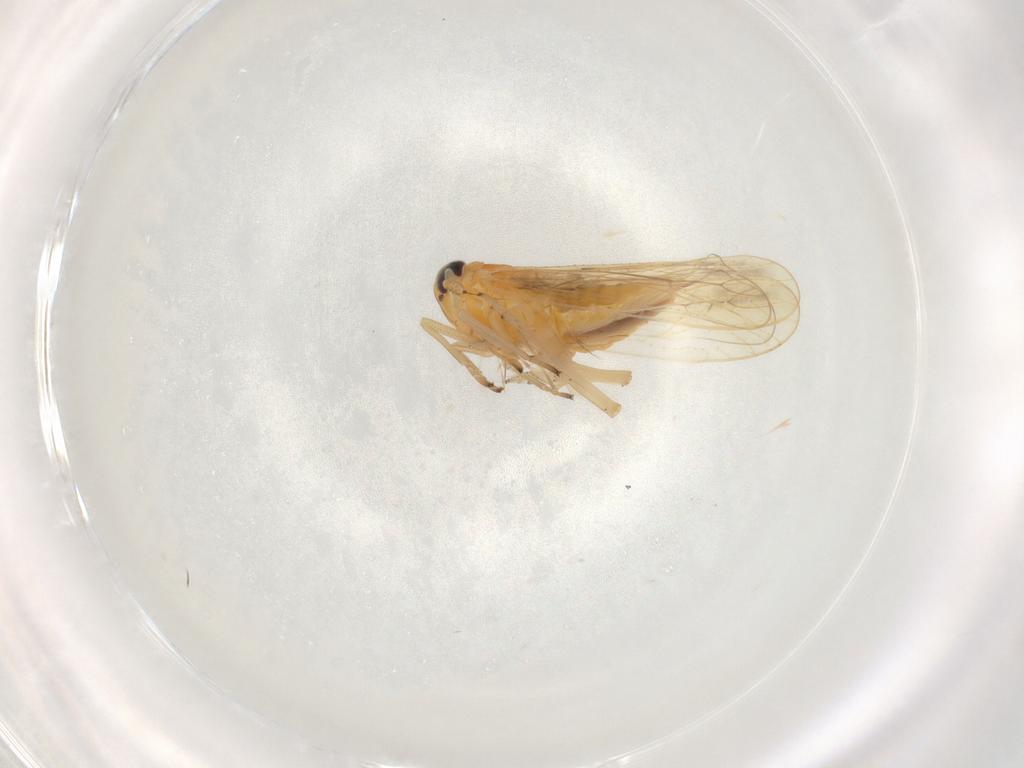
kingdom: Animalia
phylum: Arthropoda
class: Insecta
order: Hemiptera
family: Delphacidae
